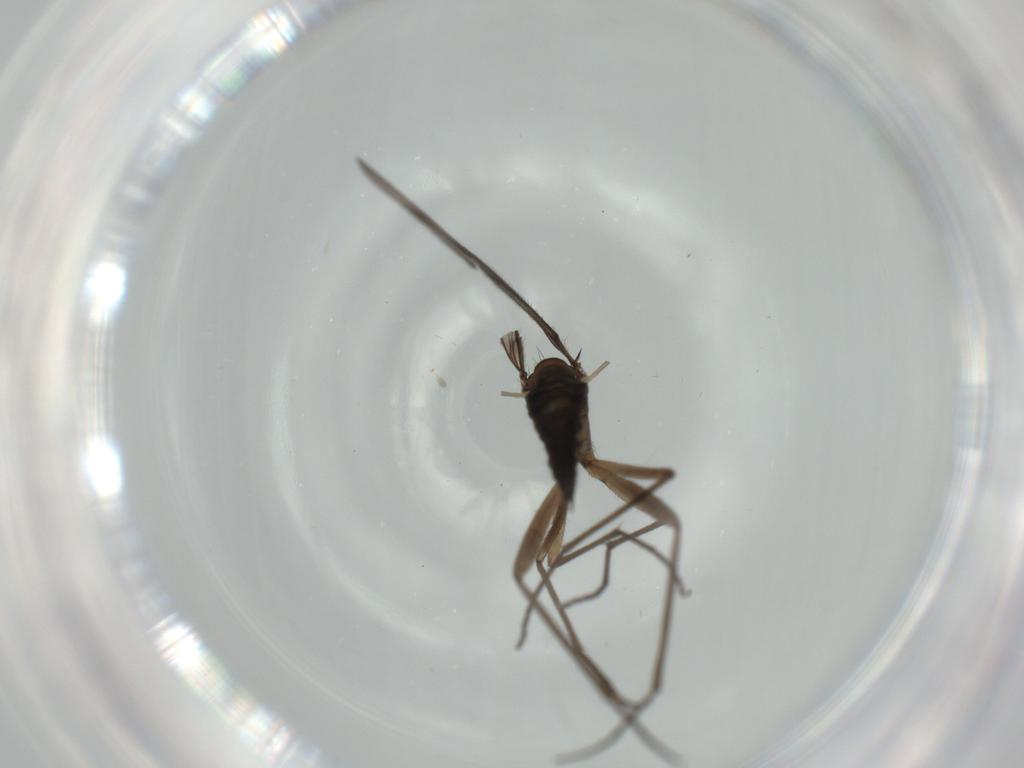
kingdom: Animalia
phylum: Arthropoda
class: Insecta
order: Diptera
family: Sciaridae
